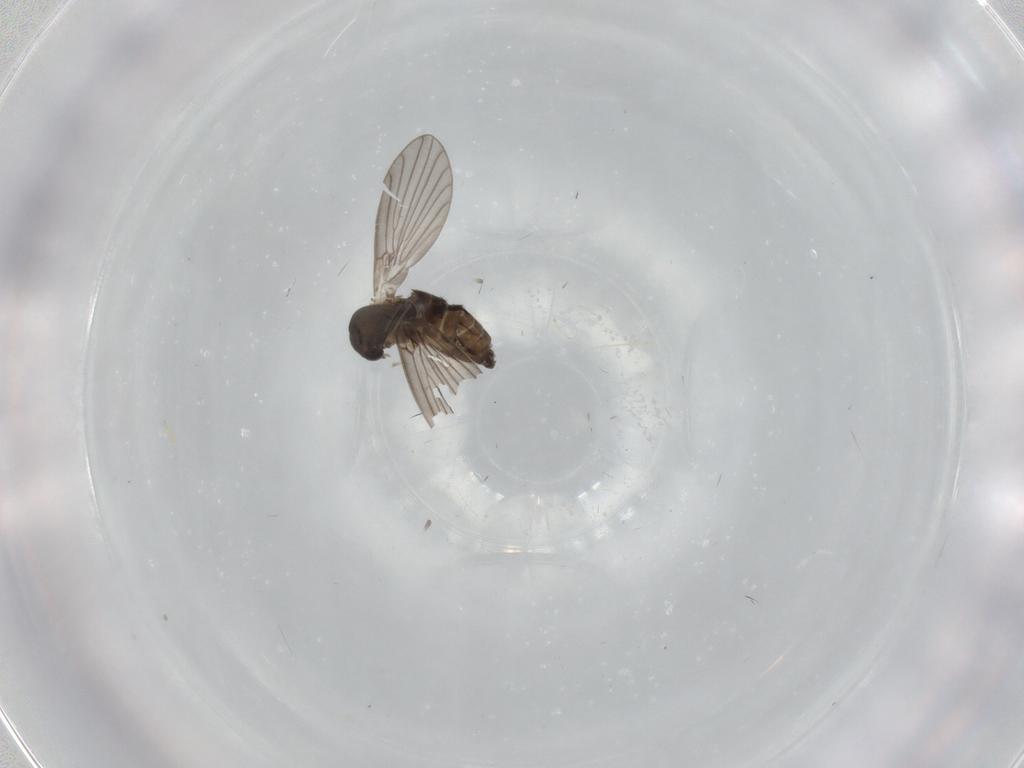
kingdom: Animalia
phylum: Arthropoda
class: Insecta
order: Diptera
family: Pipunculidae
